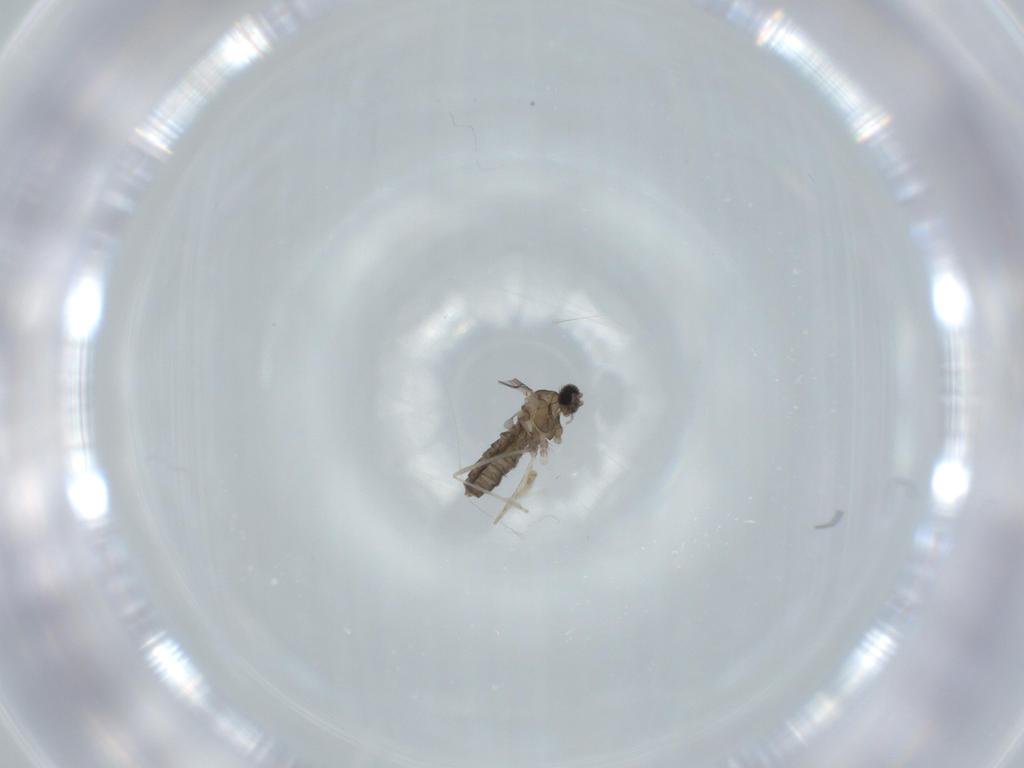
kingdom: Animalia
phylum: Arthropoda
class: Insecta
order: Diptera
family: Cecidomyiidae
